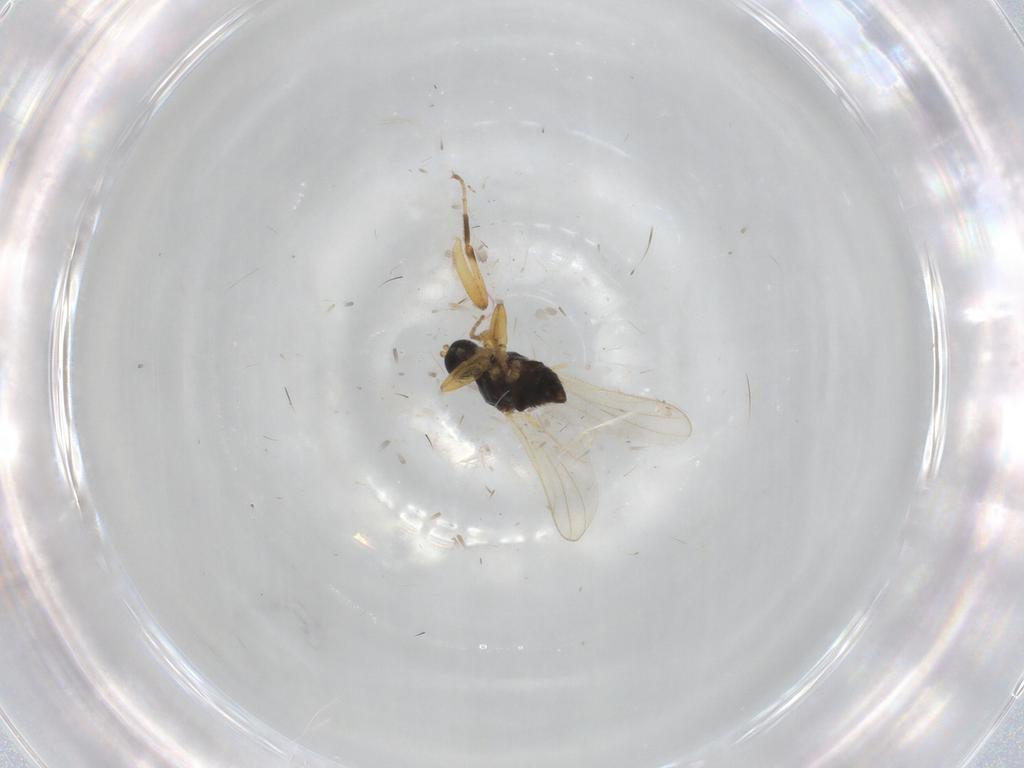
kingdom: Animalia
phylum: Arthropoda
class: Insecta
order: Diptera
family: Hybotidae
